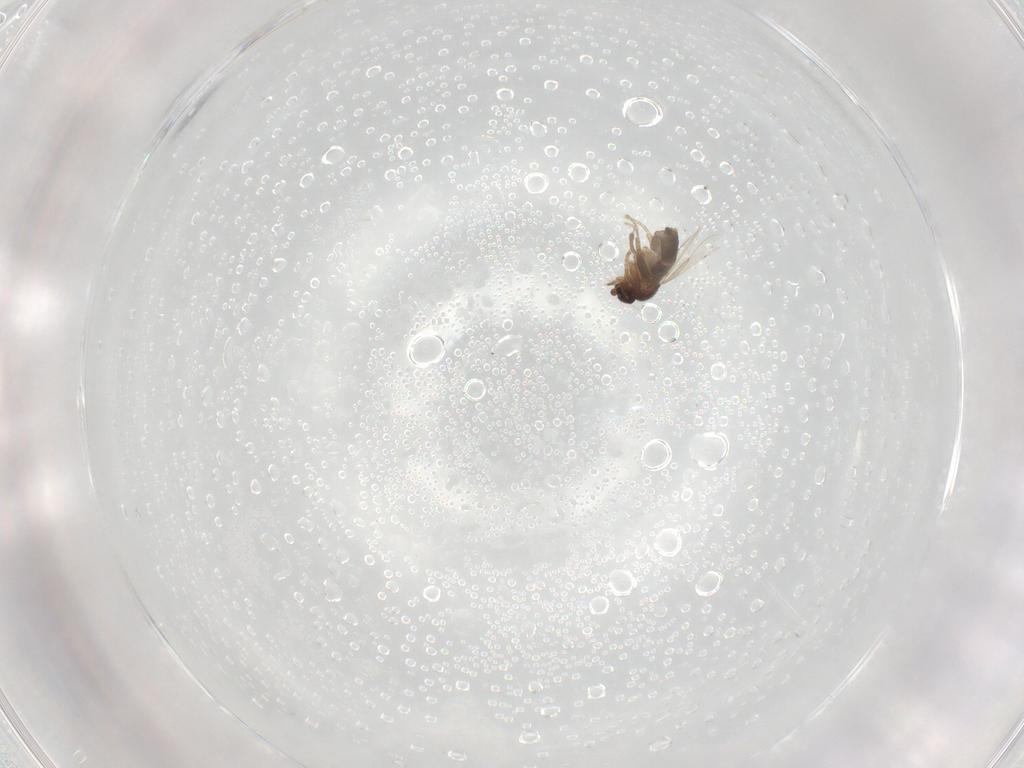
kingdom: Animalia
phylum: Arthropoda
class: Insecta
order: Diptera
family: Phoridae
